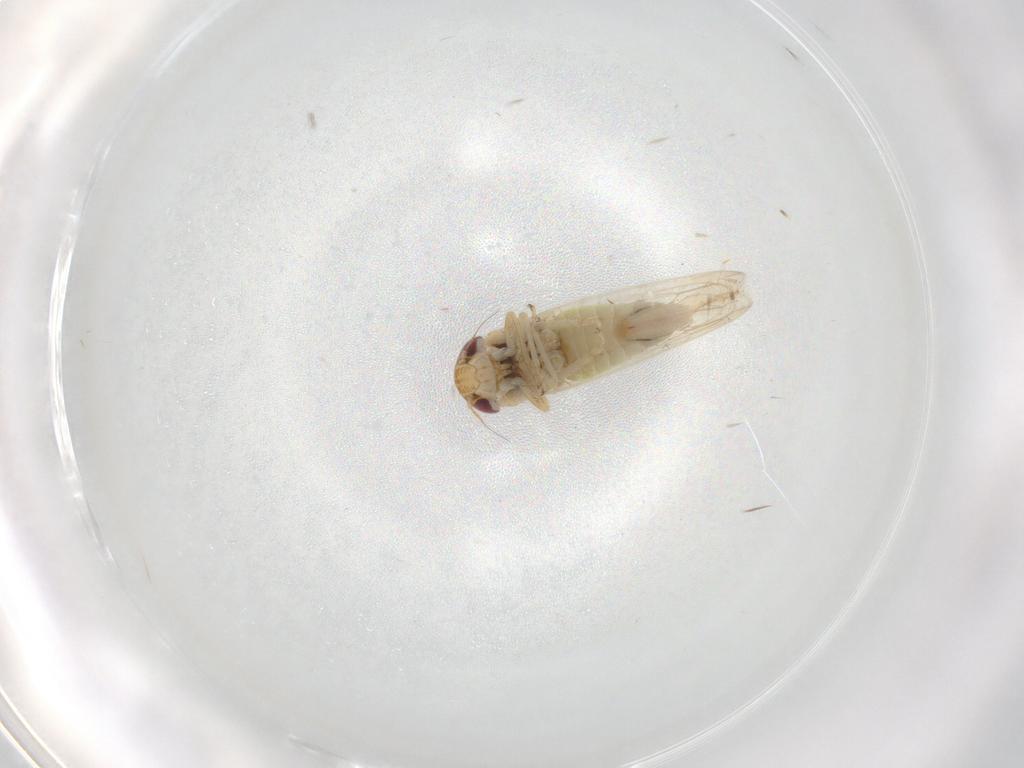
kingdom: Animalia
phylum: Arthropoda
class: Insecta
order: Hemiptera
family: Cicadellidae
